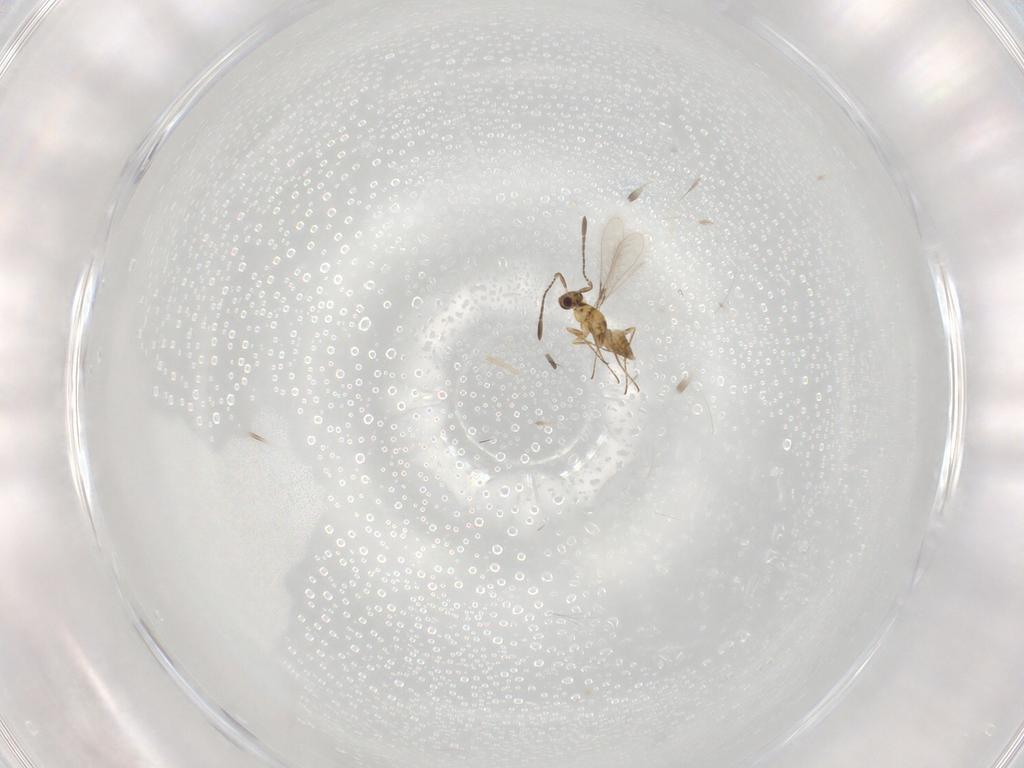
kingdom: Animalia
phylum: Arthropoda
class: Insecta
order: Hymenoptera
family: Mymaridae
